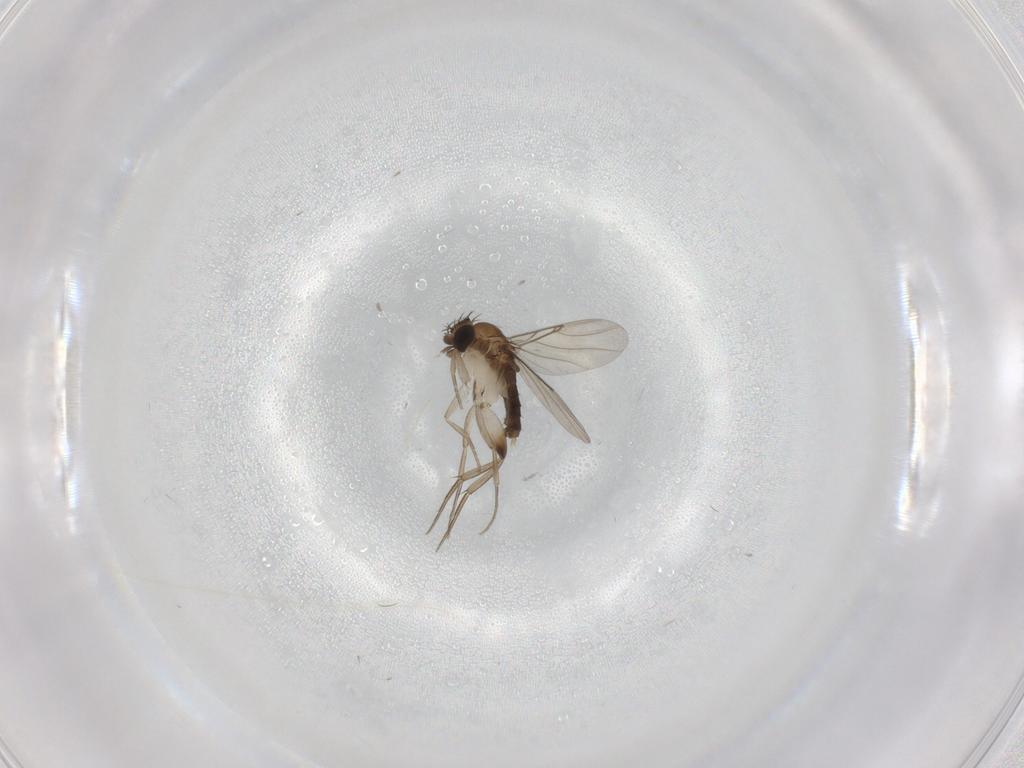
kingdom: Animalia
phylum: Arthropoda
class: Insecta
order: Diptera
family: Phoridae
